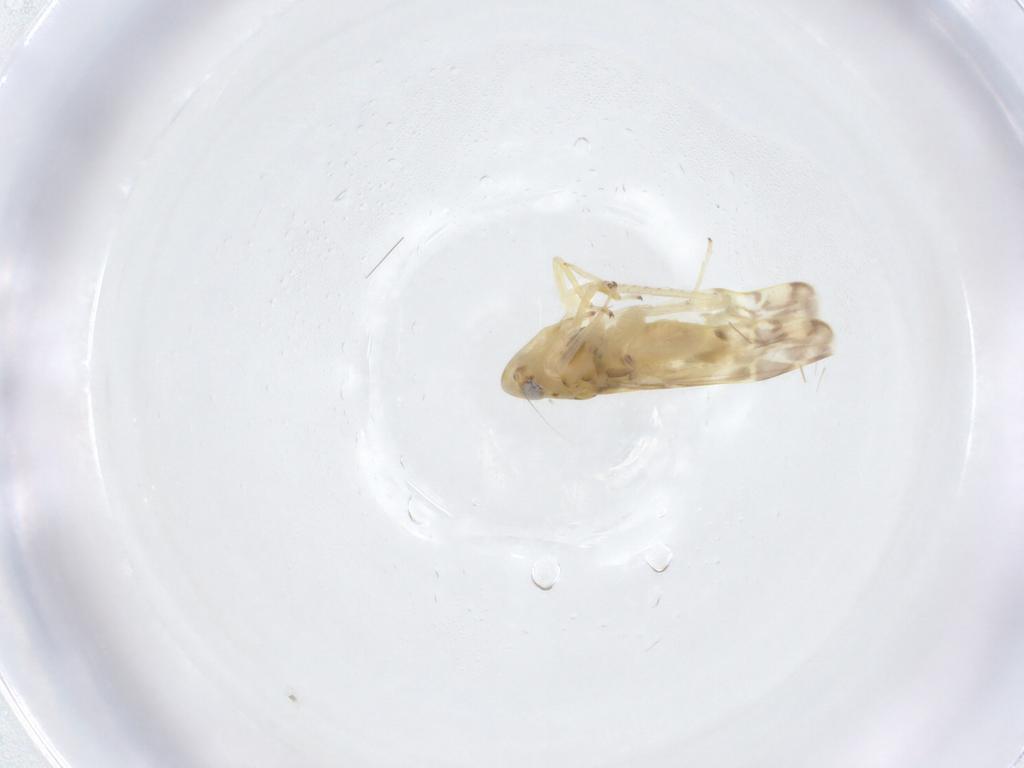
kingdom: Animalia
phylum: Arthropoda
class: Insecta
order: Hemiptera
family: Cicadellidae
